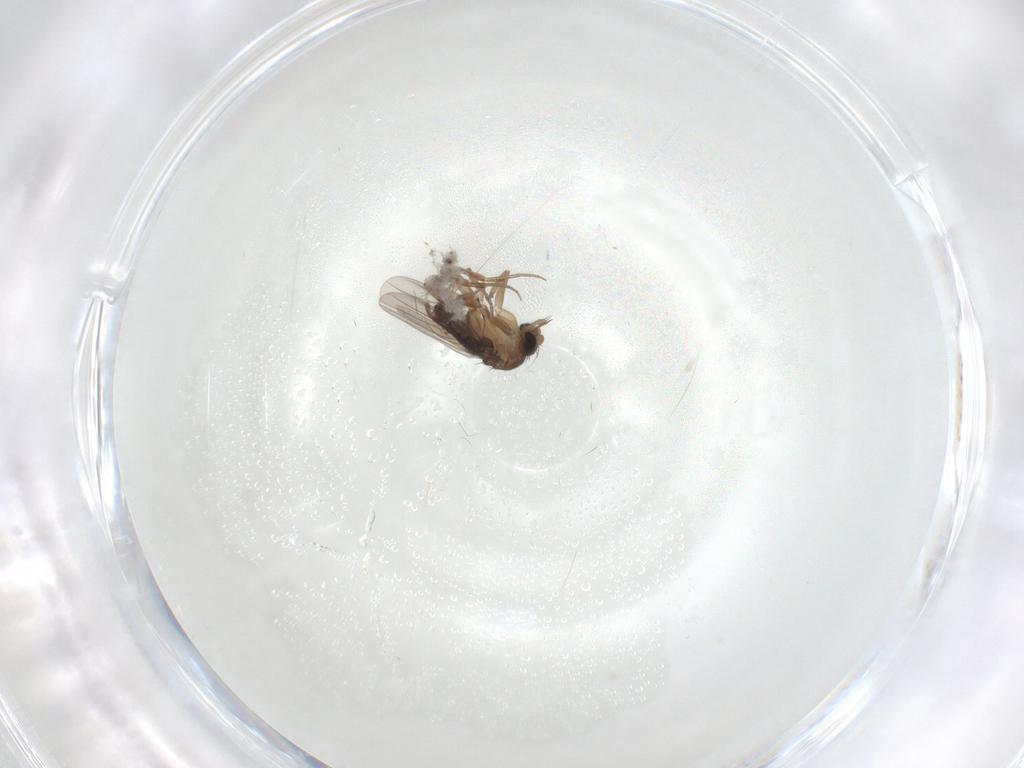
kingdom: Animalia
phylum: Arthropoda
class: Insecta
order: Diptera
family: Phoridae
